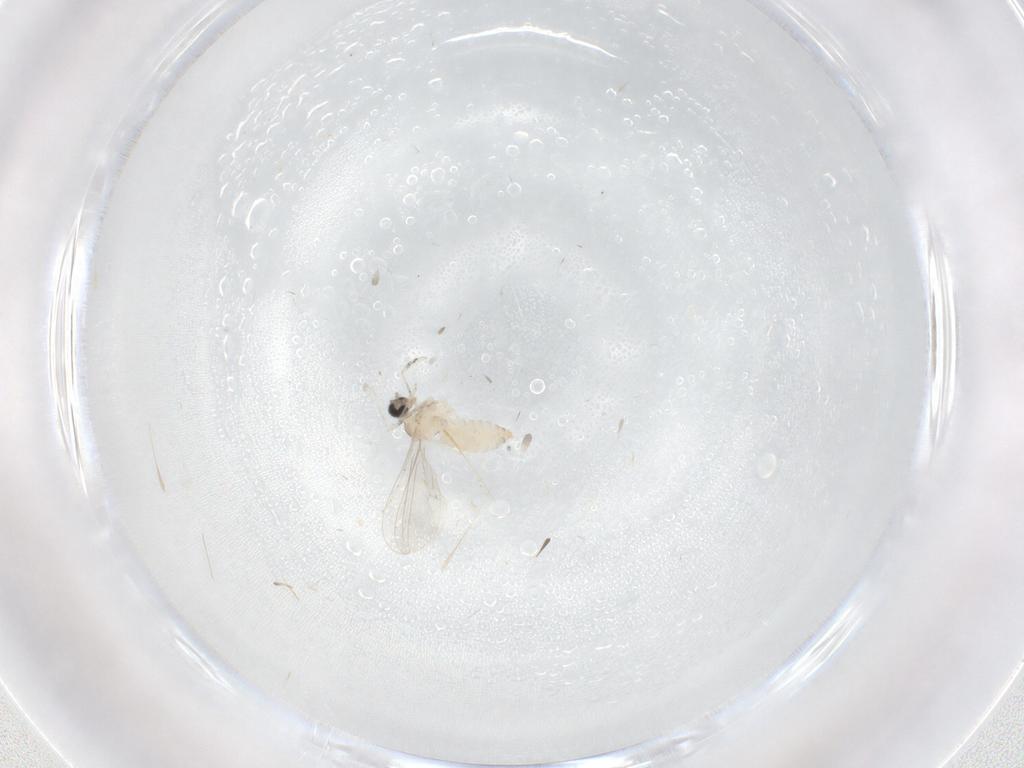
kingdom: Animalia
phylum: Arthropoda
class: Insecta
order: Diptera
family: Cecidomyiidae
